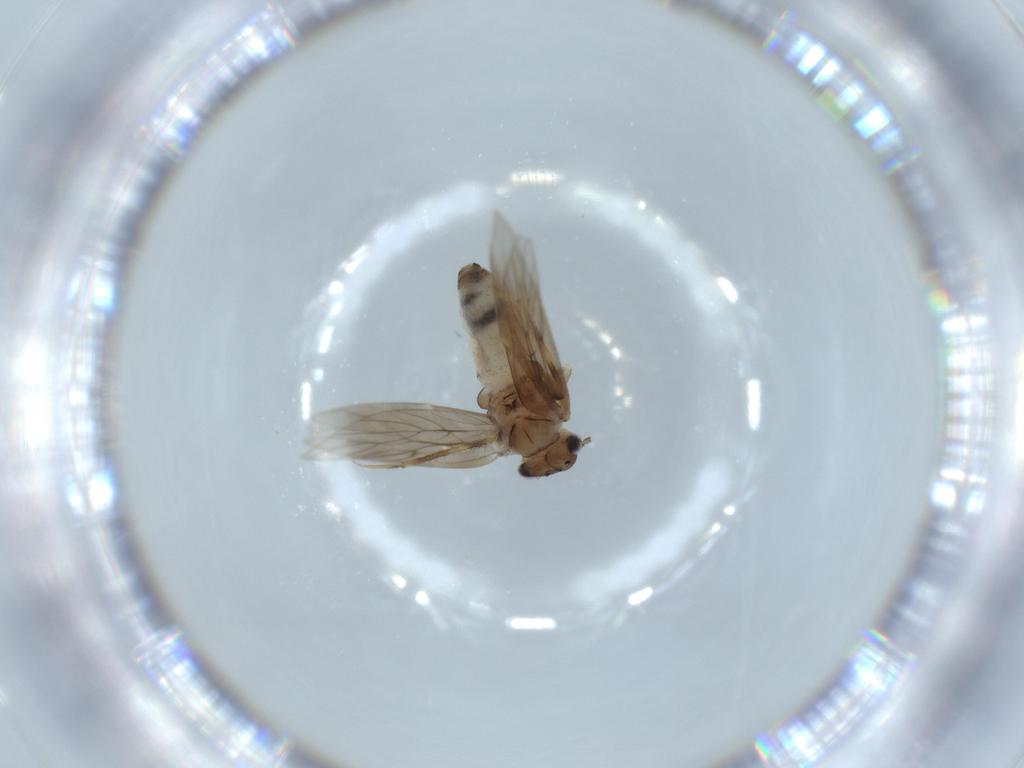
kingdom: Animalia
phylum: Arthropoda
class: Insecta
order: Psocodea
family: Lepidopsocidae
